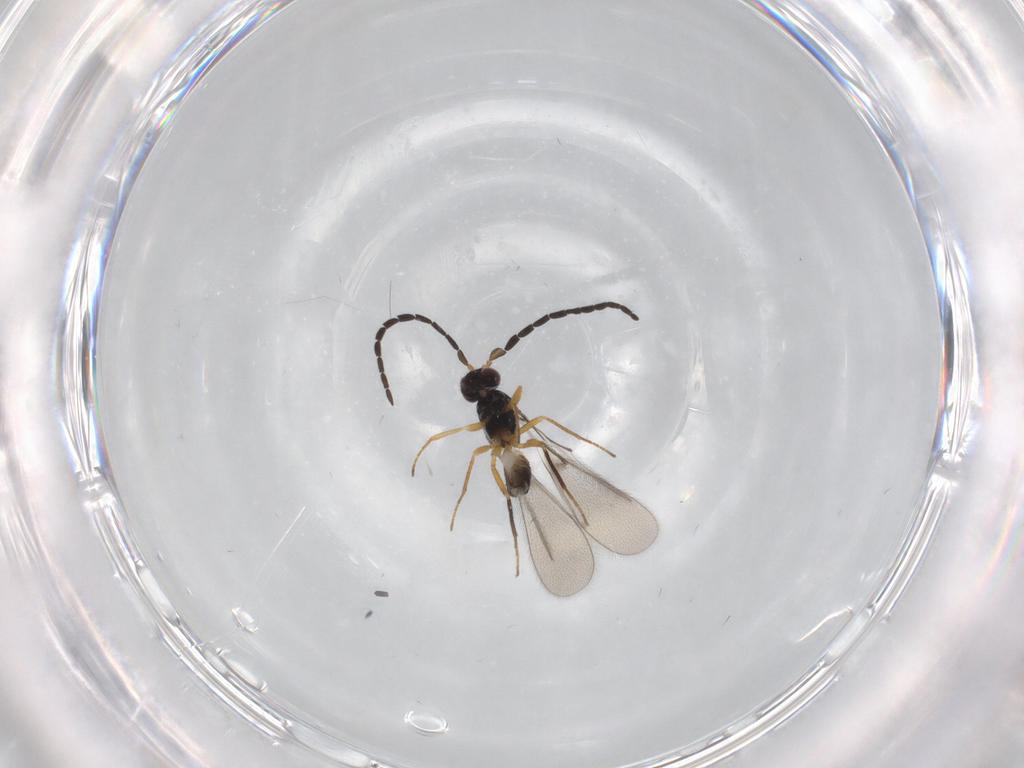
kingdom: Animalia
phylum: Arthropoda
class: Insecta
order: Hymenoptera
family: Mymaridae
